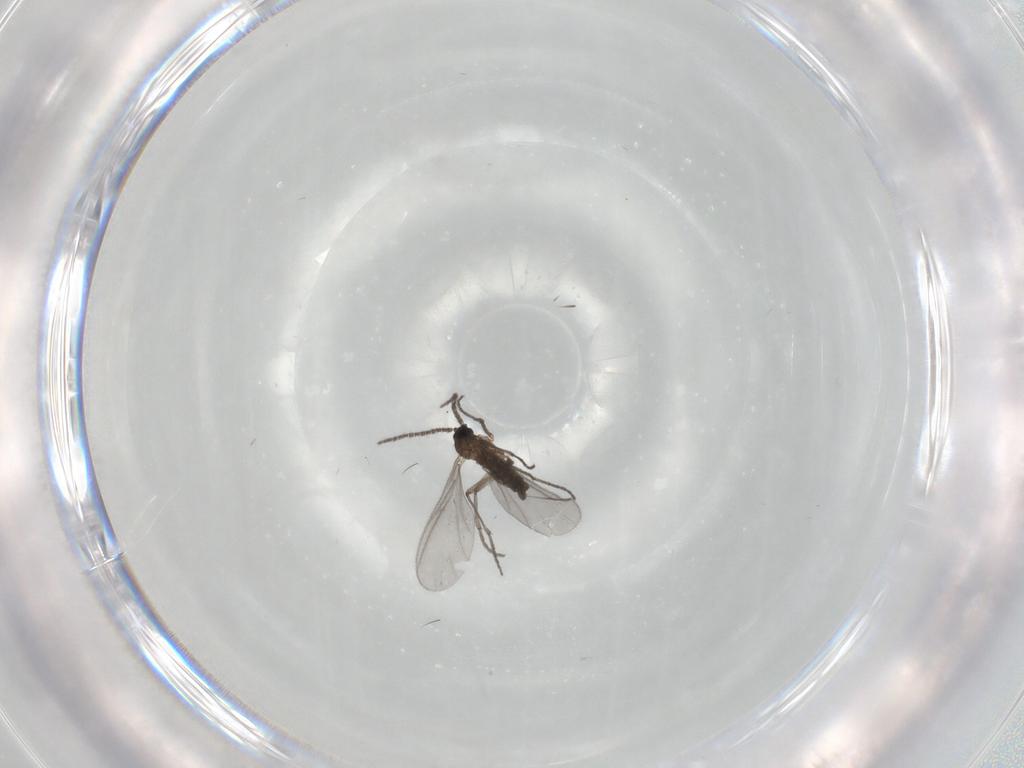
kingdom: Animalia
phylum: Arthropoda
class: Insecta
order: Diptera
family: Sciaridae
